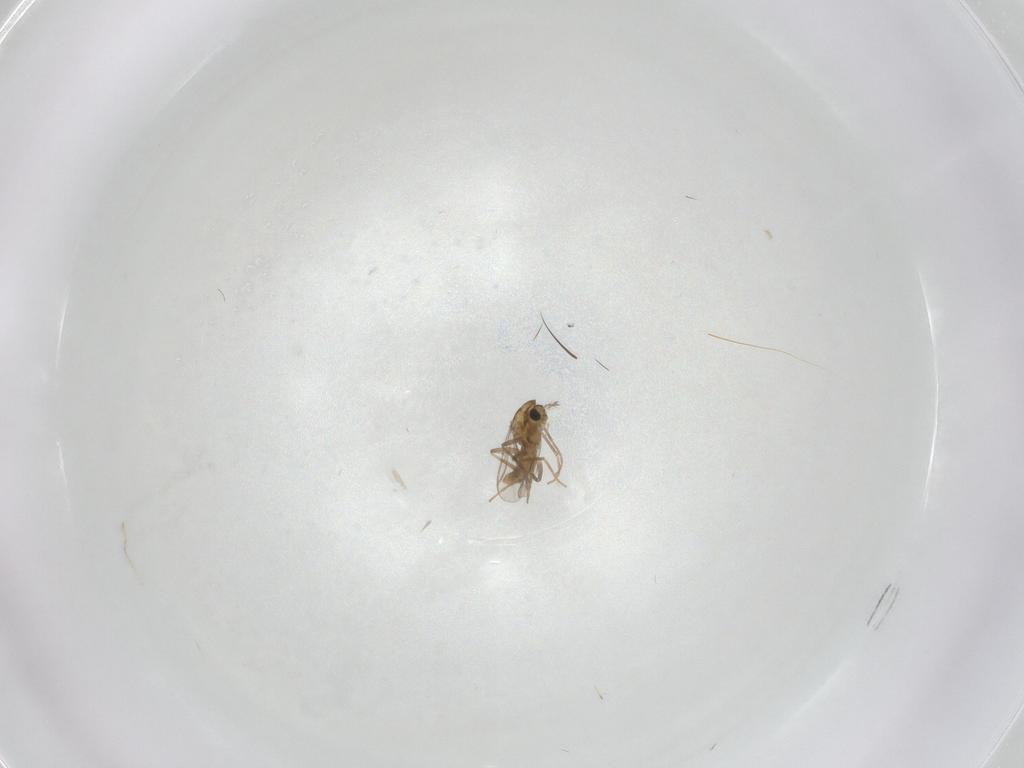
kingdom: Animalia
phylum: Arthropoda
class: Insecta
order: Diptera
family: Chironomidae
